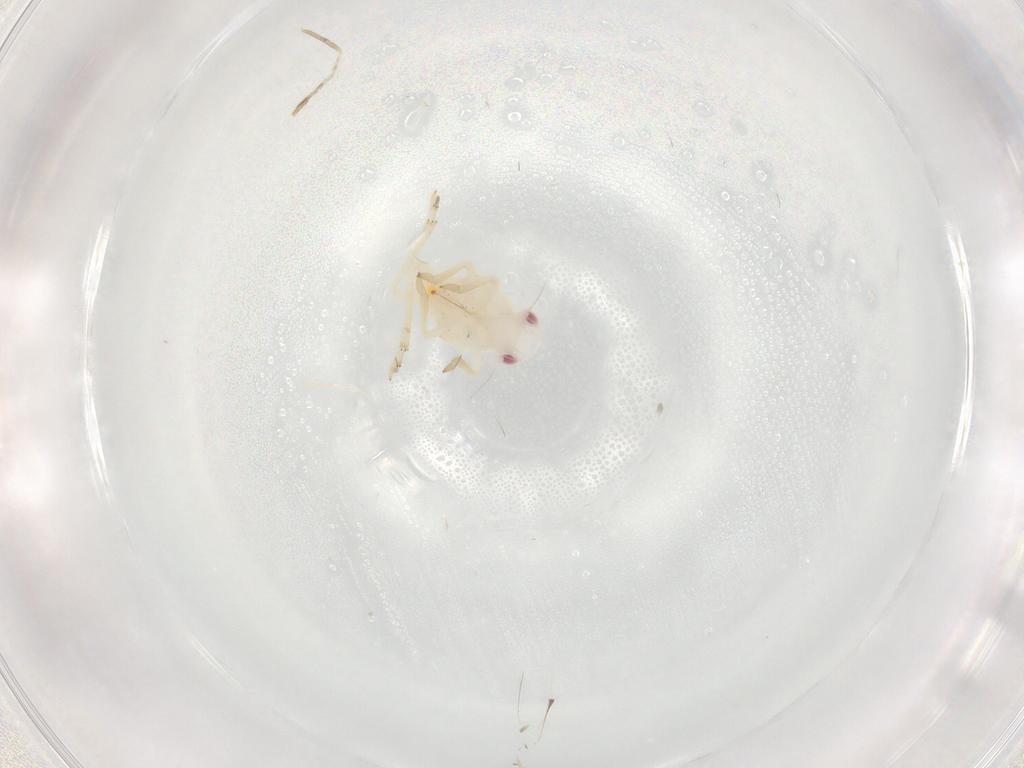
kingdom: Animalia
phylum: Arthropoda
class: Insecta
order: Hemiptera
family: Tropiduchidae
